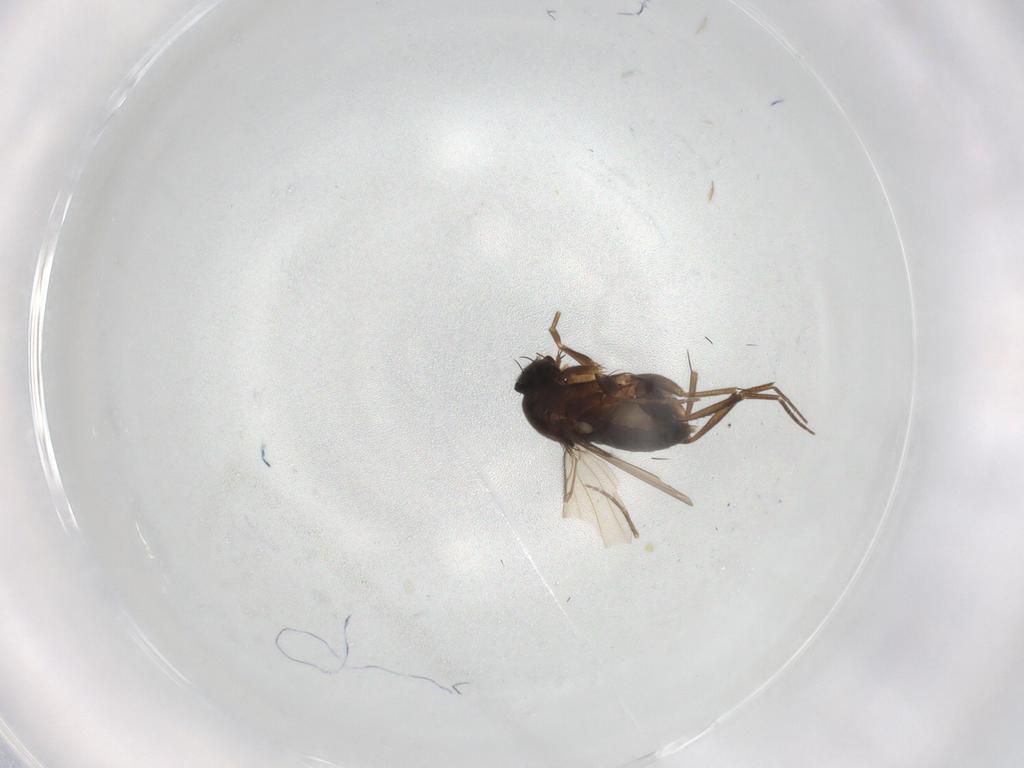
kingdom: Animalia
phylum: Arthropoda
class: Insecta
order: Diptera
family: Phoridae
